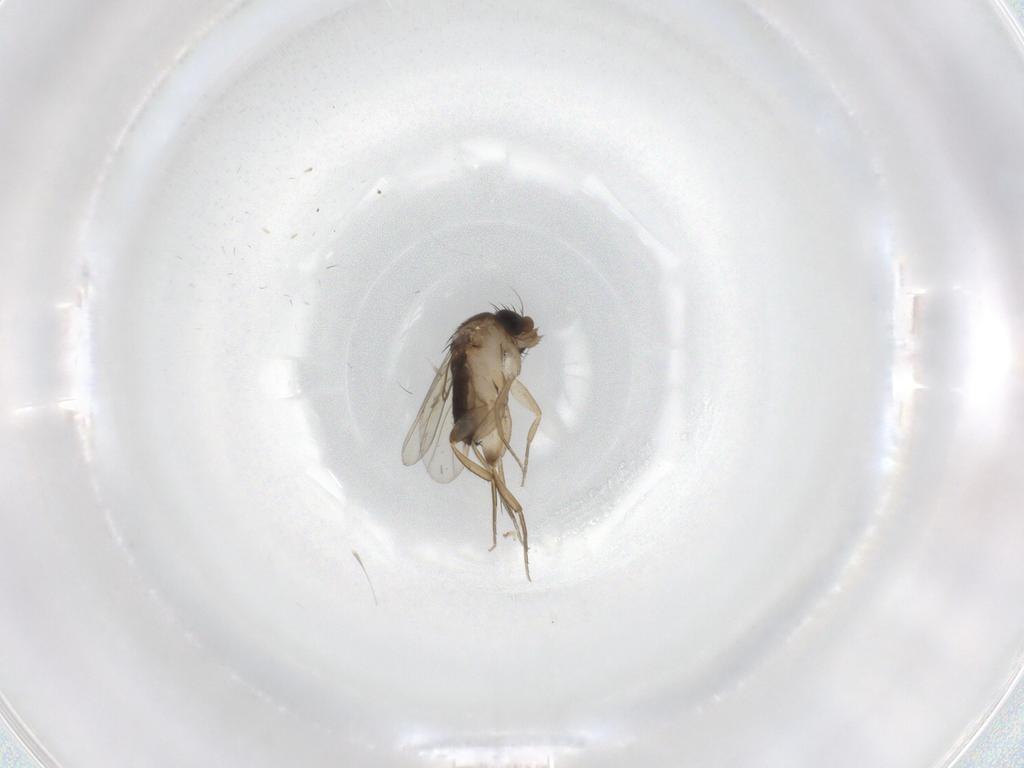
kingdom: Animalia
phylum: Arthropoda
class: Insecta
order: Diptera
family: Phoridae
